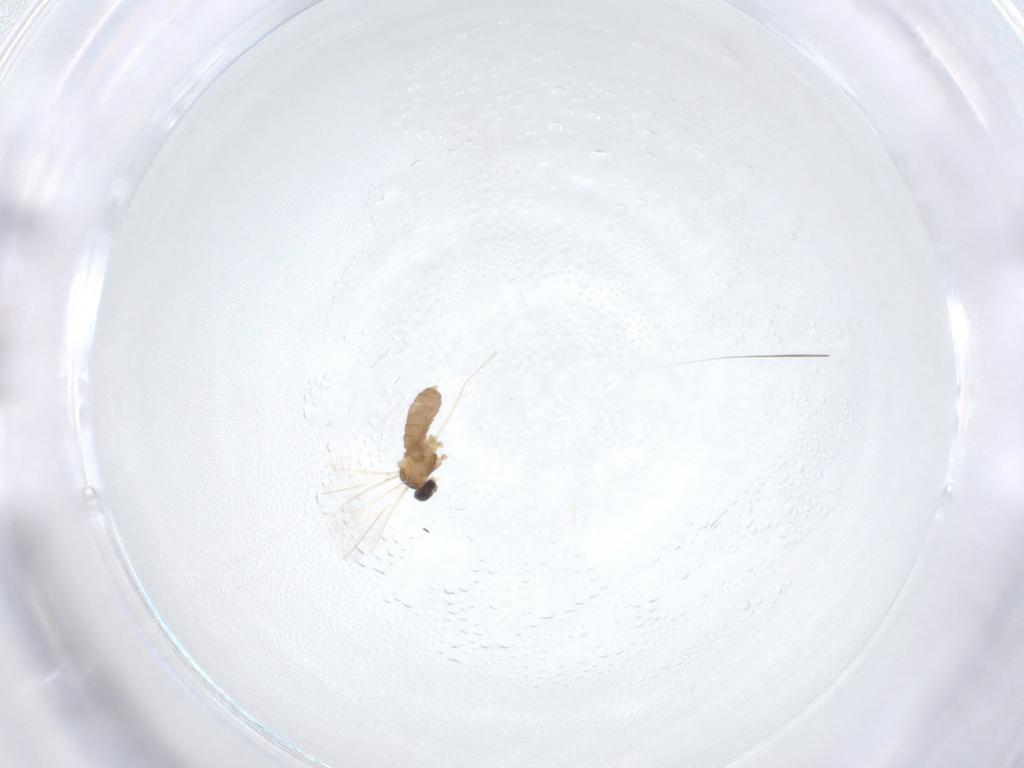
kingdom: Animalia
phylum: Arthropoda
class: Insecta
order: Diptera
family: Cecidomyiidae
